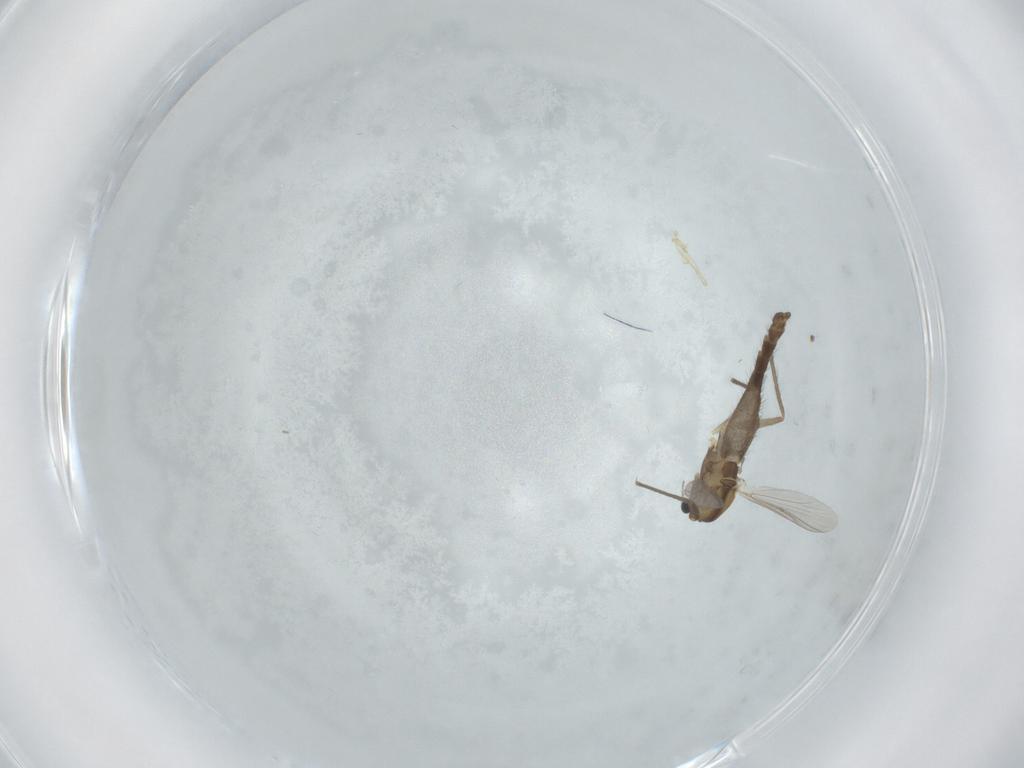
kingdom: Animalia
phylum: Arthropoda
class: Insecta
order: Diptera
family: Chironomidae
